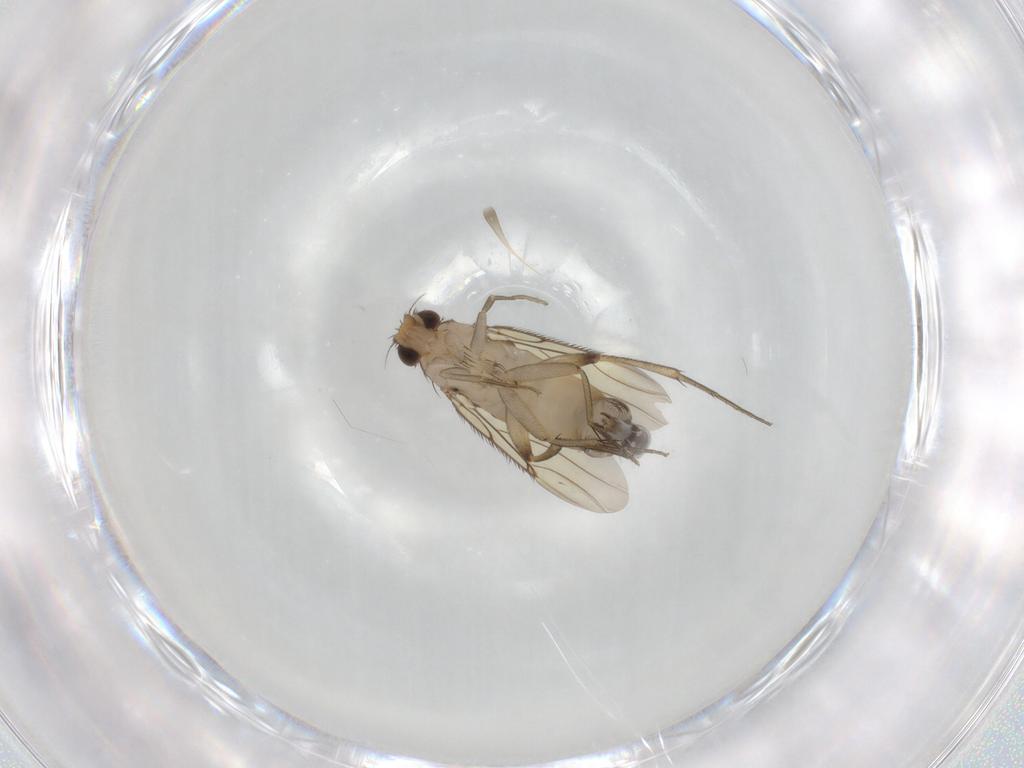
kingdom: Animalia
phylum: Arthropoda
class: Insecta
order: Diptera
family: Phoridae
